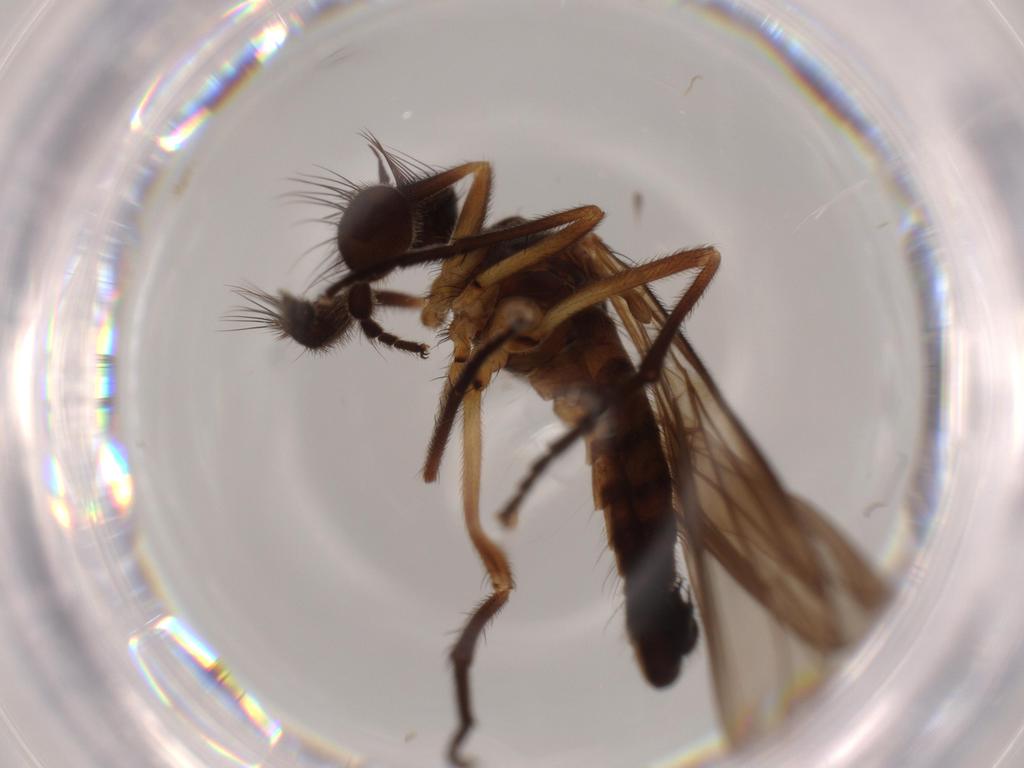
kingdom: Animalia
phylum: Arthropoda
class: Insecta
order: Diptera
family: Empididae
